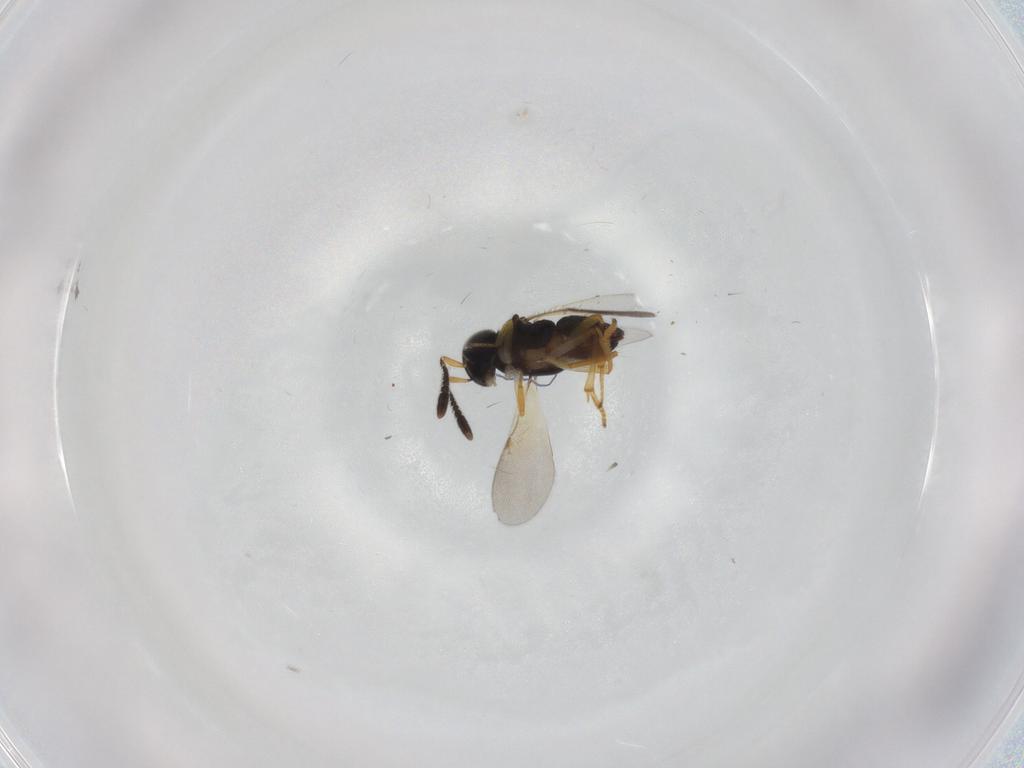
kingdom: Animalia
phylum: Arthropoda
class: Insecta
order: Hymenoptera
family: Encyrtidae
